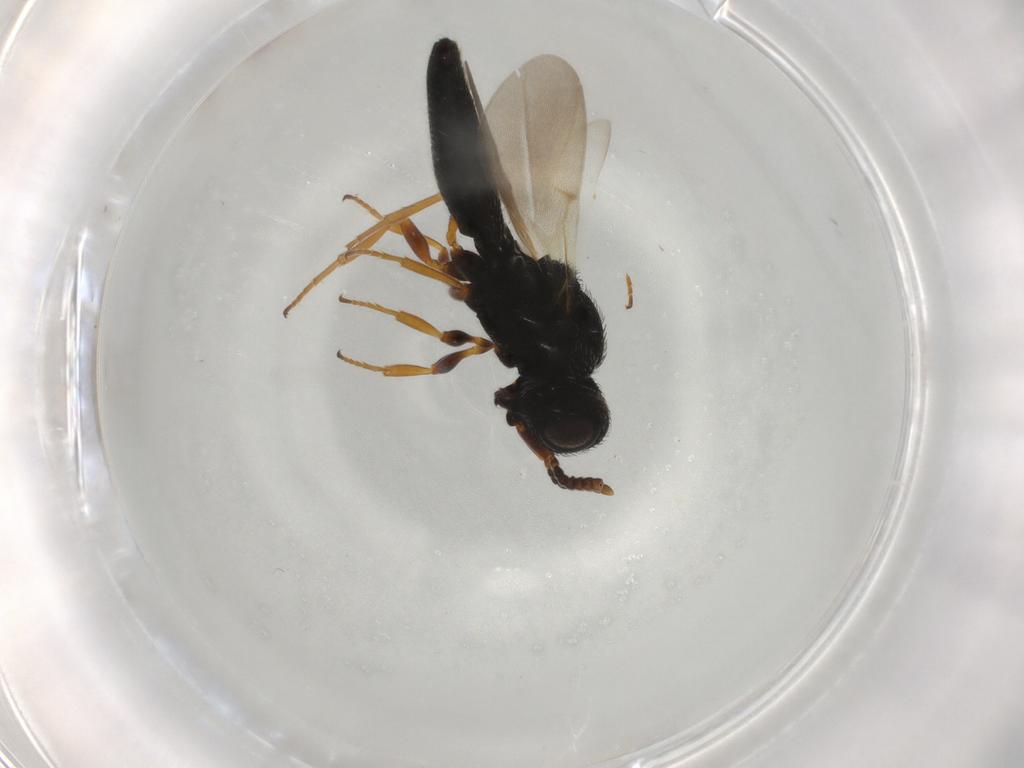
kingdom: Animalia
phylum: Arthropoda
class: Insecta
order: Hymenoptera
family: Scelionidae
